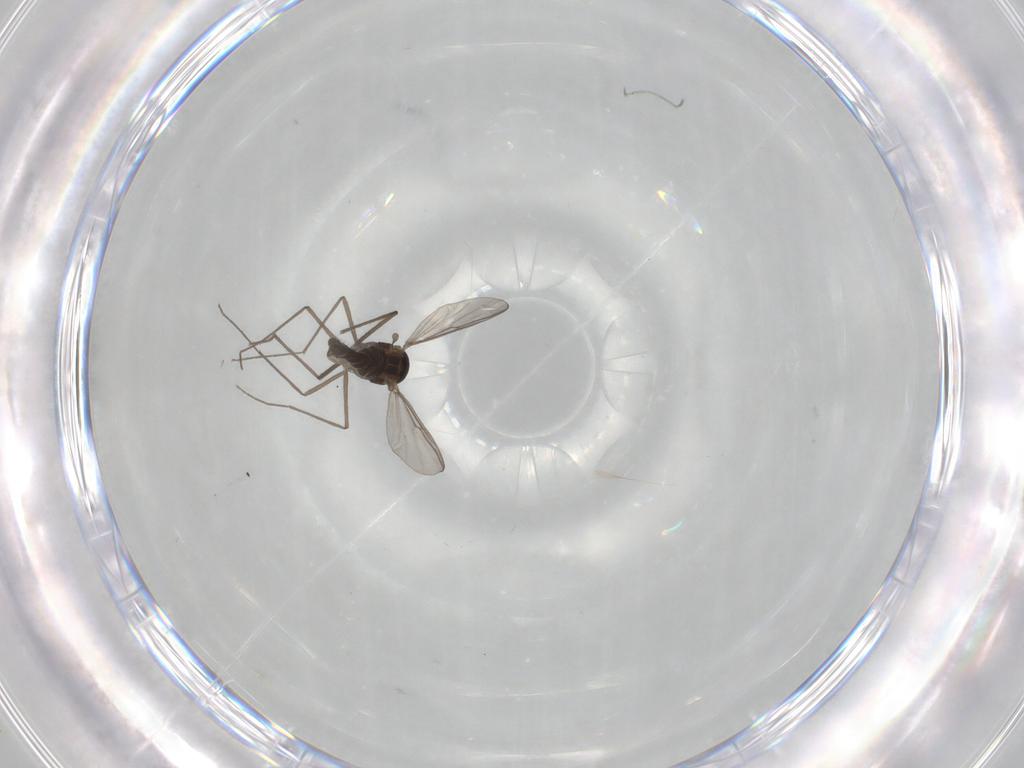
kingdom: Animalia
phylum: Arthropoda
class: Insecta
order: Diptera
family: Chironomidae
